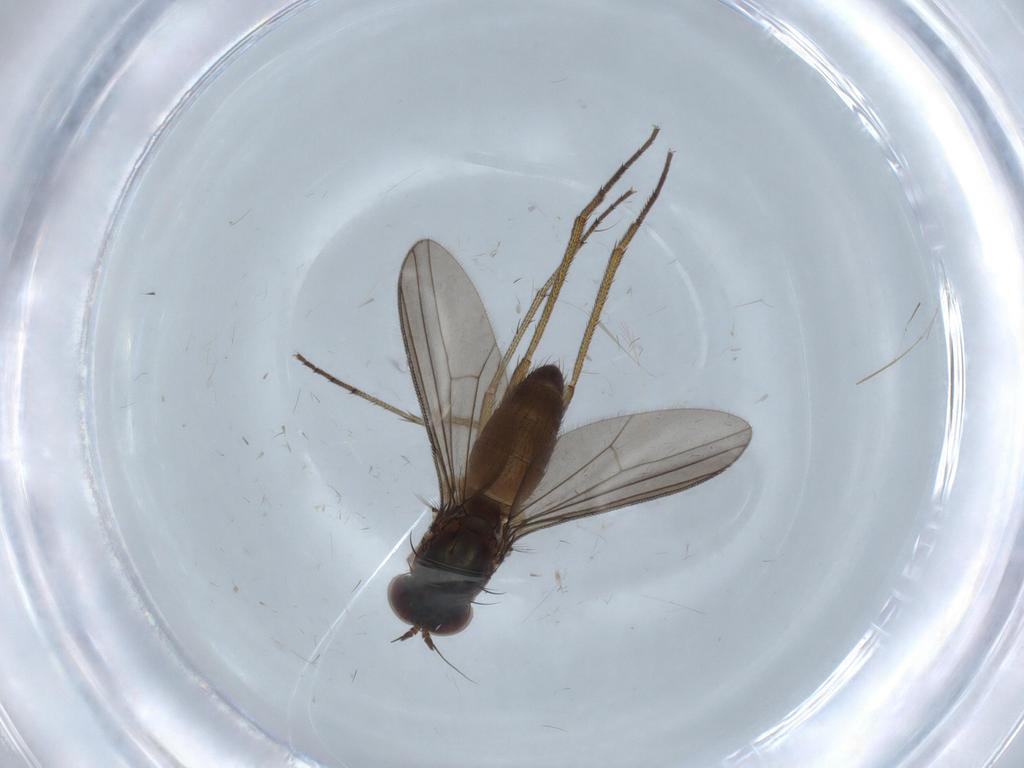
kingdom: Animalia
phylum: Arthropoda
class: Insecta
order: Diptera
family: Dolichopodidae
